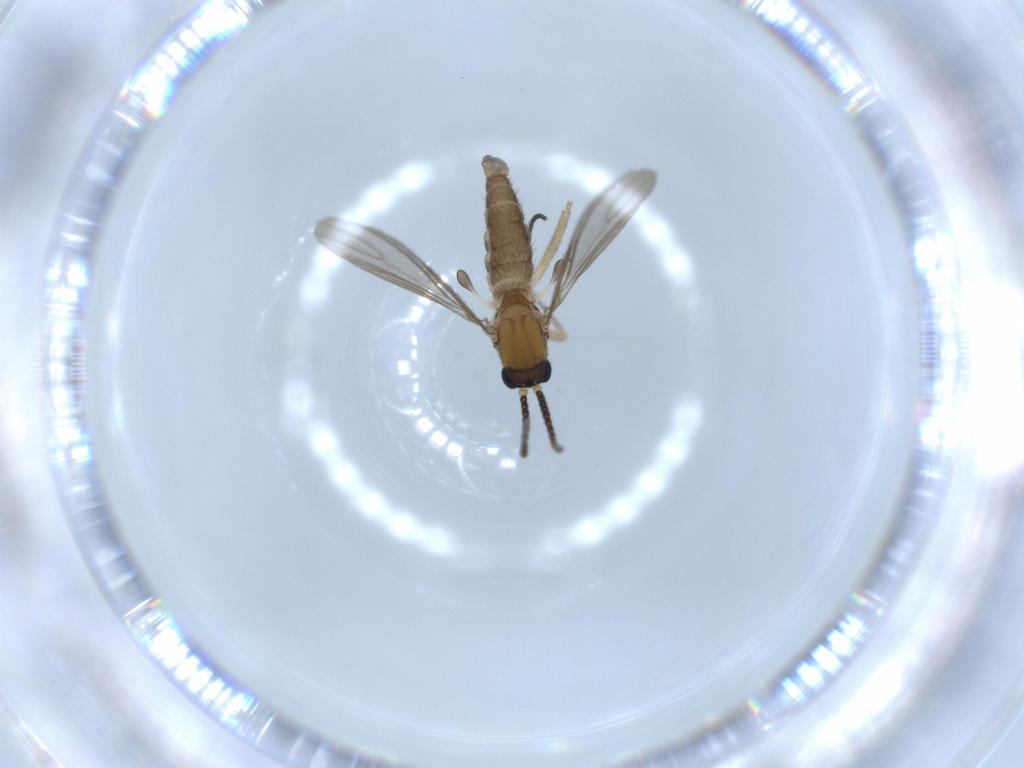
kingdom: Animalia
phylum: Arthropoda
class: Insecta
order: Diptera
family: Sciaridae
